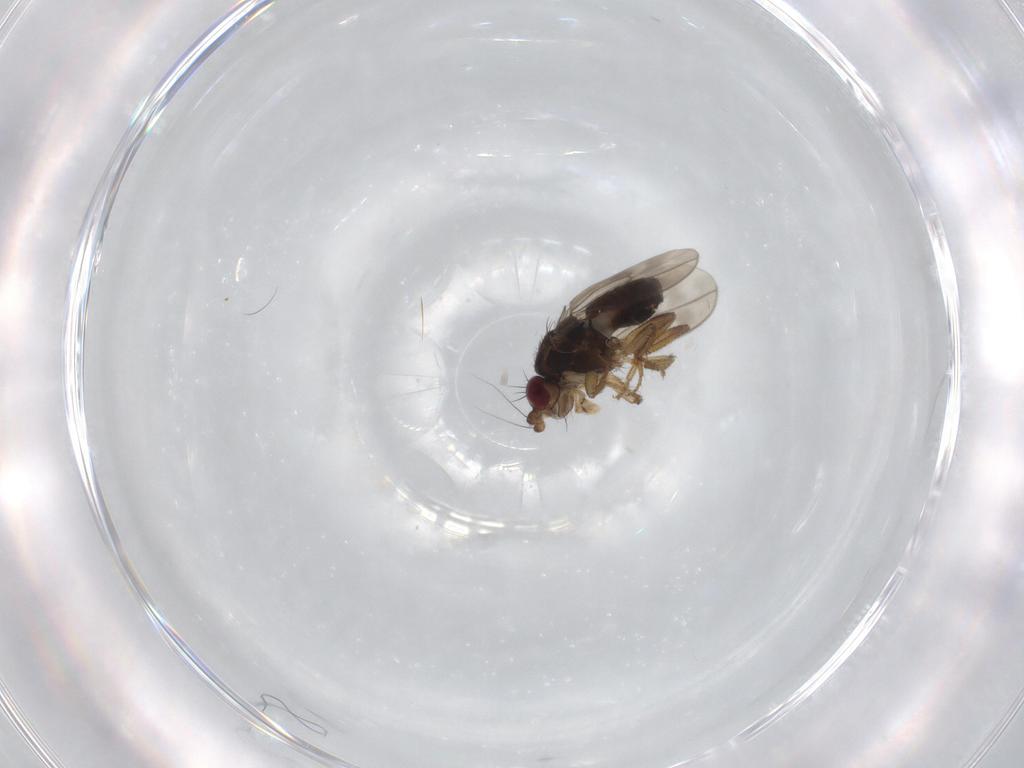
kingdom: Animalia
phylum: Arthropoda
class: Insecta
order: Diptera
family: Sphaeroceridae
